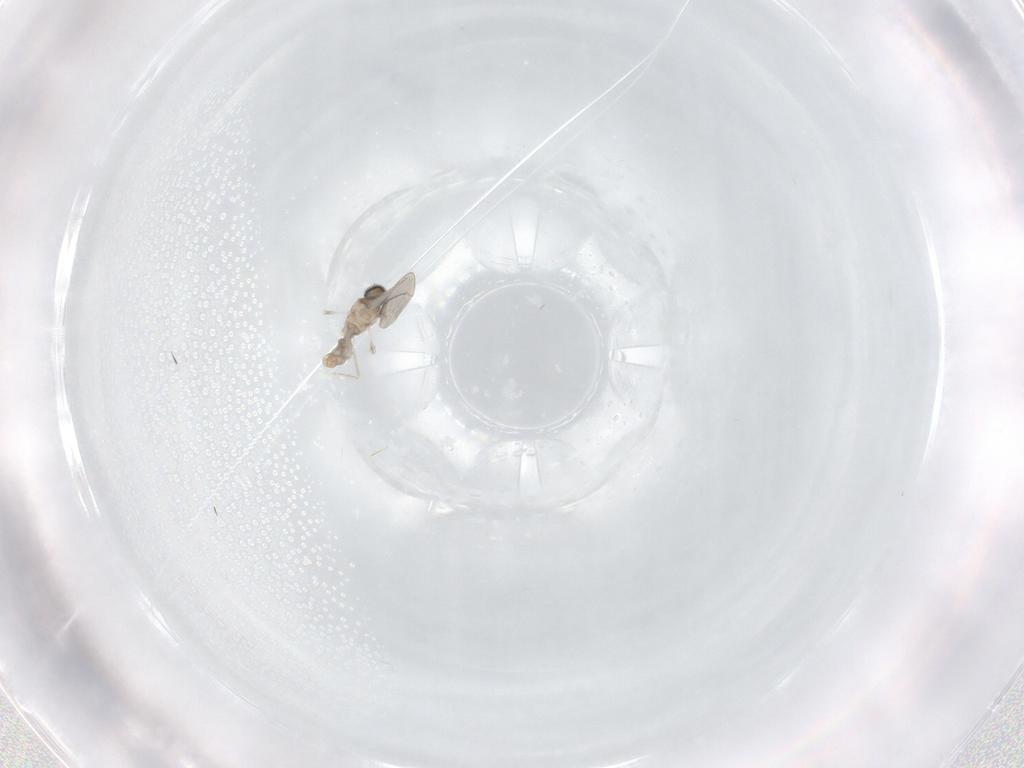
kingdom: Animalia
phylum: Arthropoda
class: Insecta
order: Diptera
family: Cecidomyiidae
